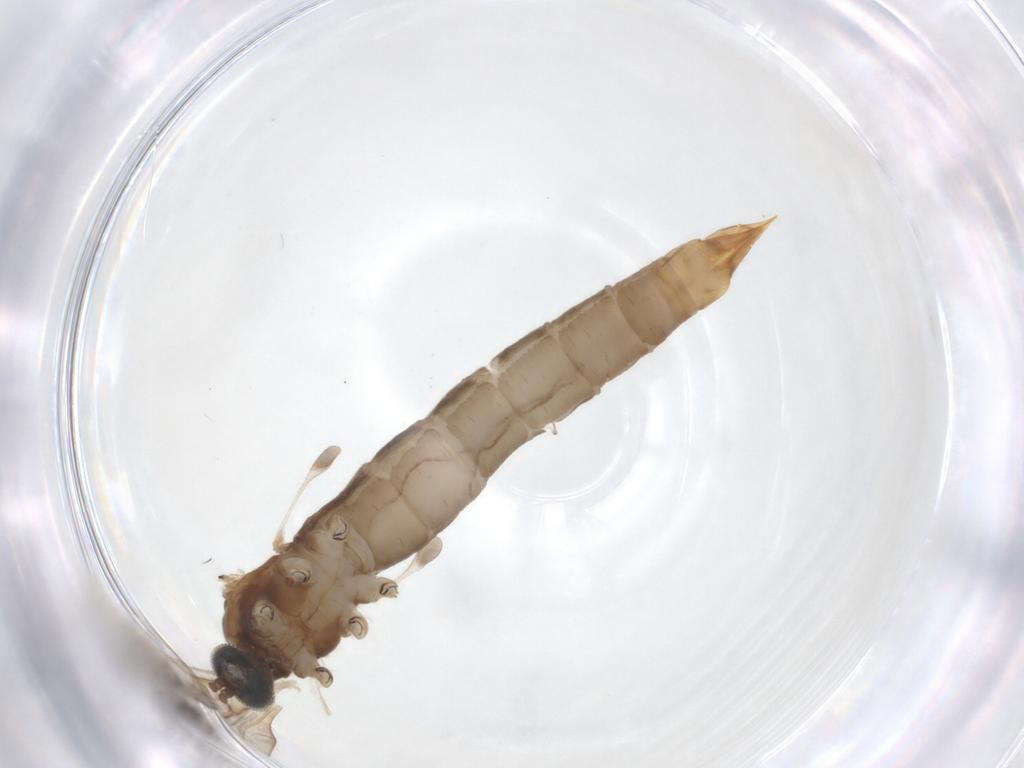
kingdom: Animalia
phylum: Arthropoda
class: Insecta
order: Diptera
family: Limoniidae
